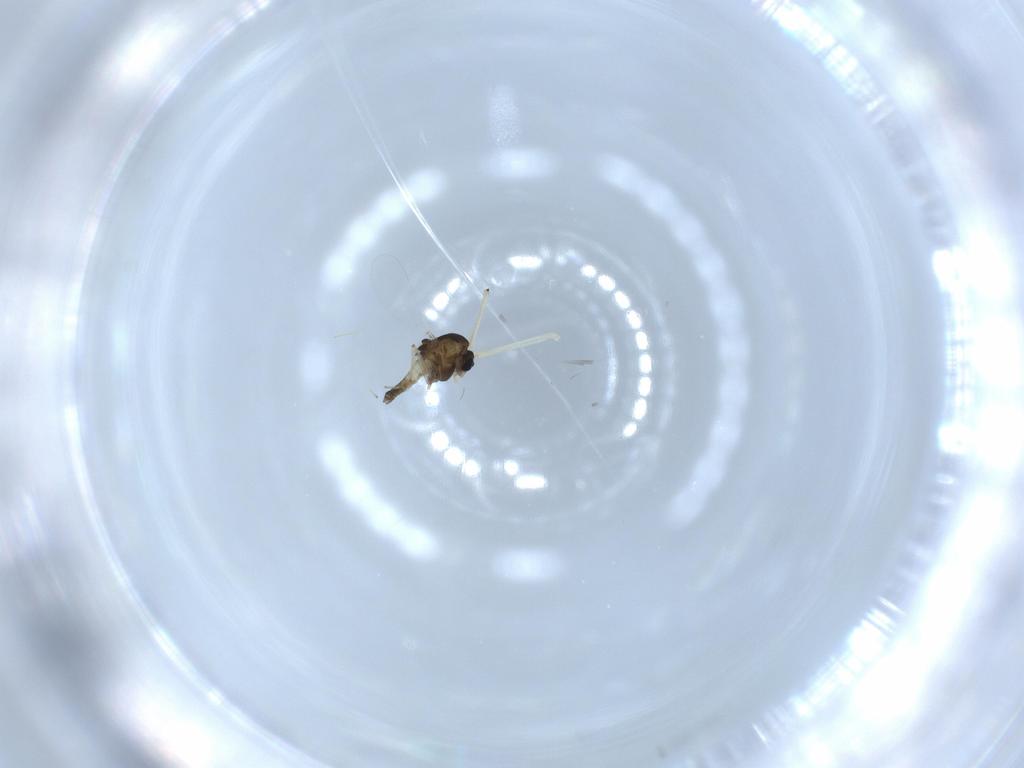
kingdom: Animalia
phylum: Arthropoda
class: Insecta
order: Diptera
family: Chironomidae
